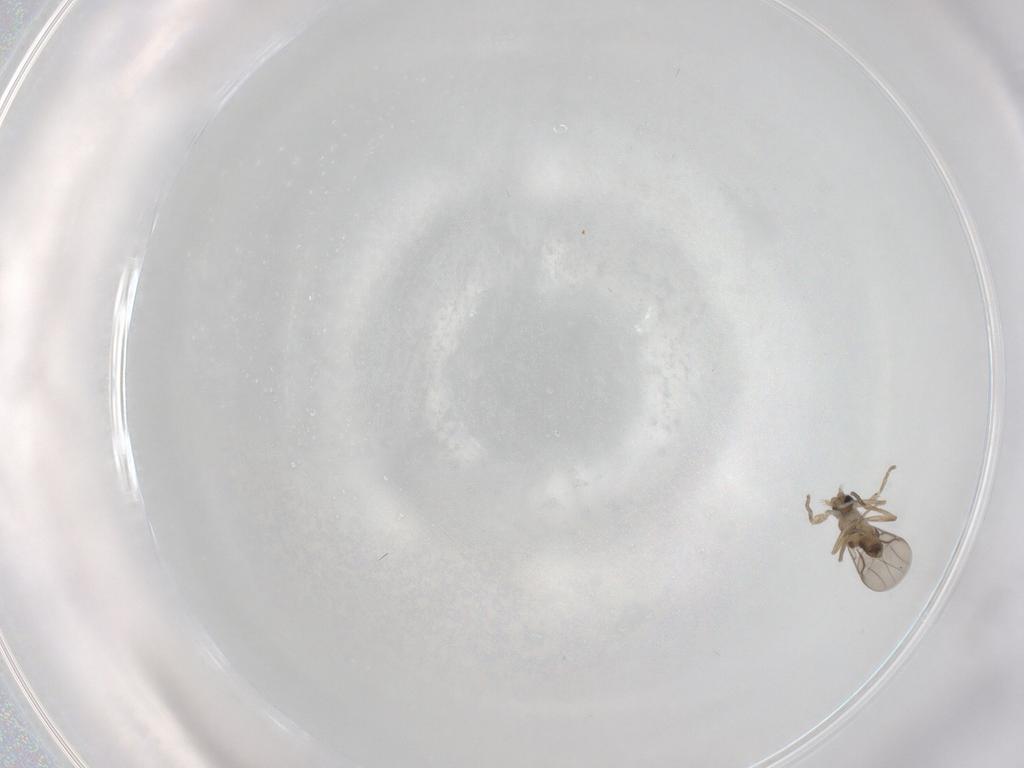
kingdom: Animalia
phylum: Arthropoda
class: Insecta
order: Diptera
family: Phoridae
